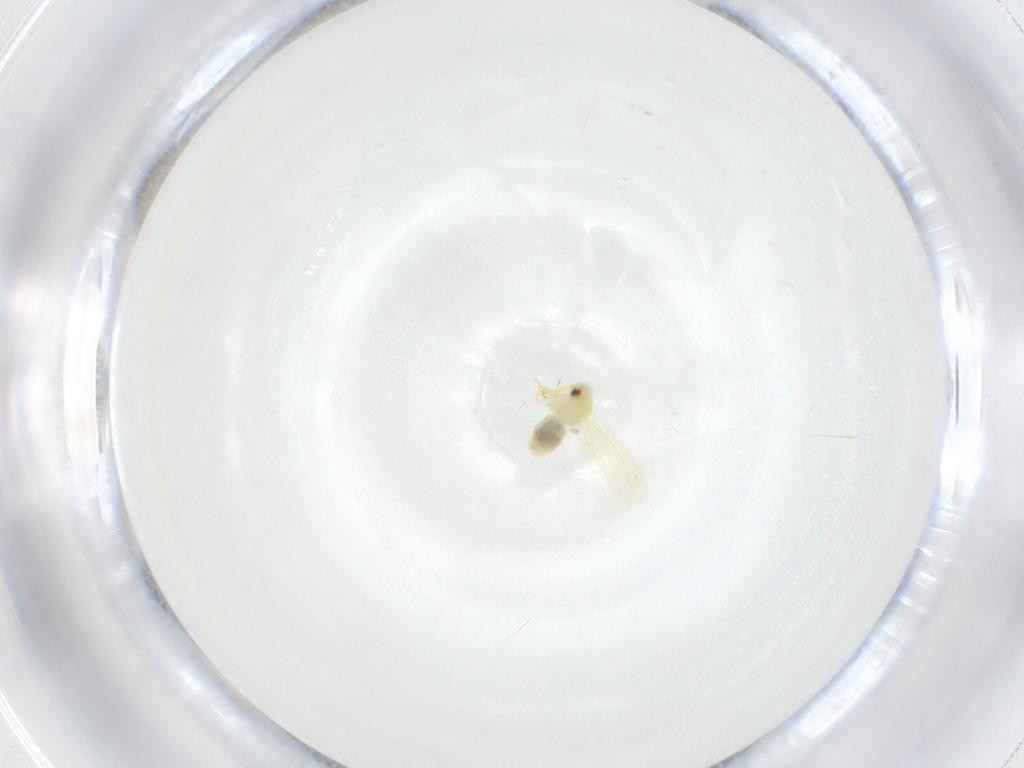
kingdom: Animalia
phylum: Arthropoda
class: Insecta
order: Hemiptera
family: Aleyrodidae
